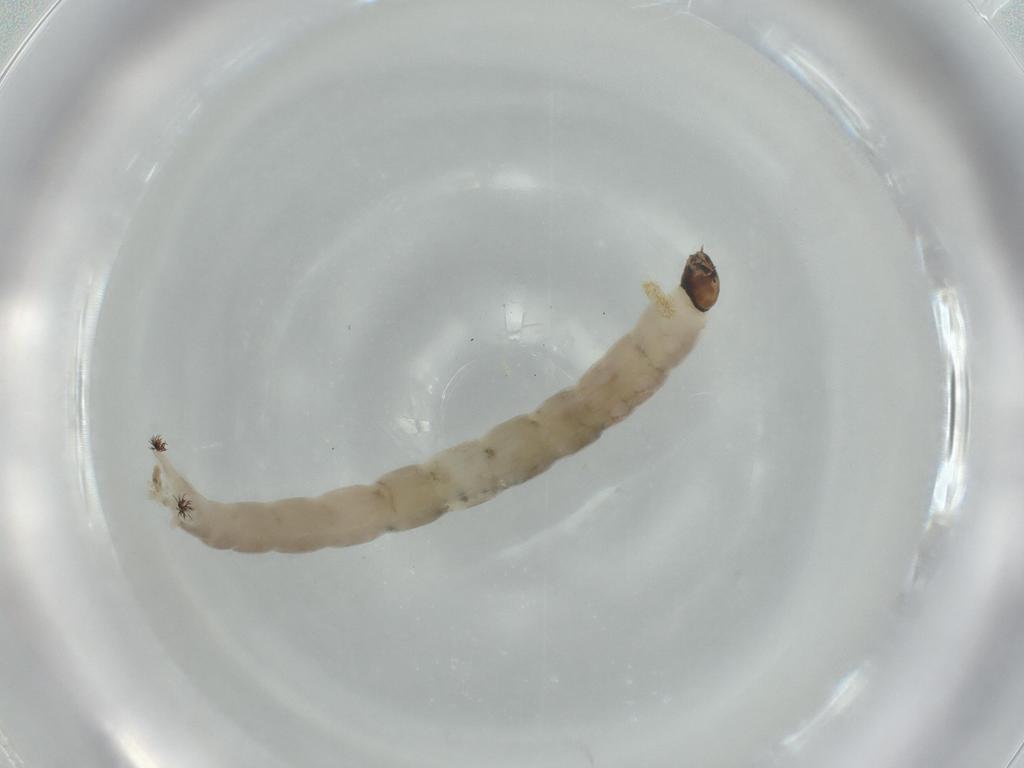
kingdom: Animalia
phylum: Arthropoda
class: Insecta
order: Diptera
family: Chironomidae
